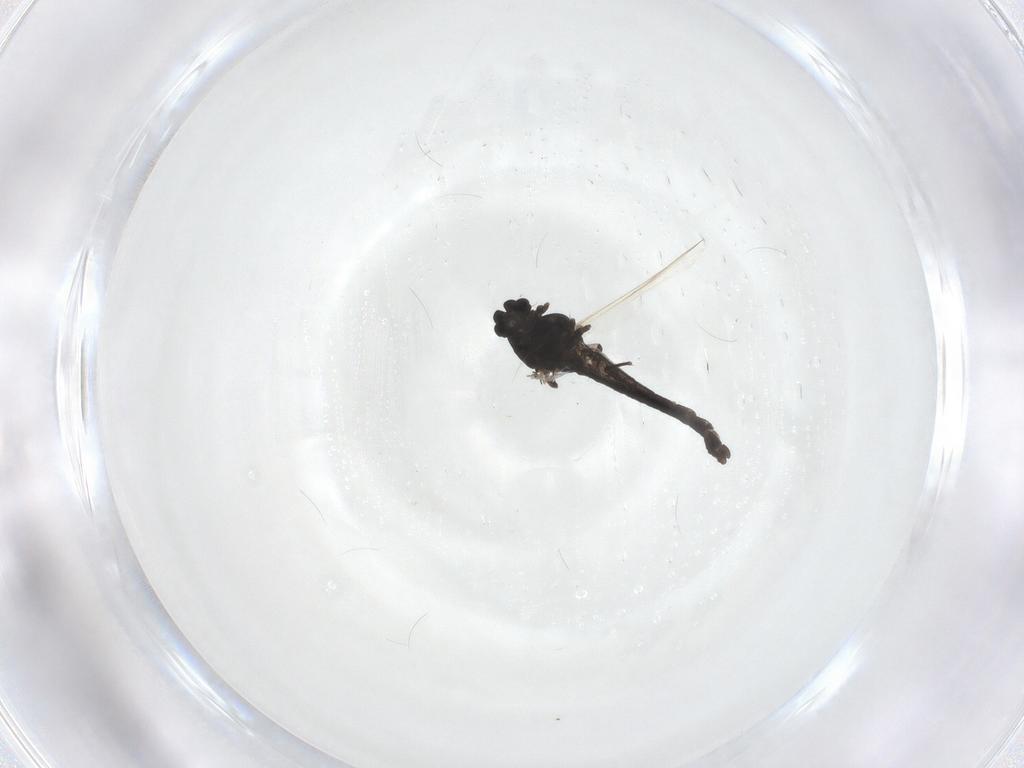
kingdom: Animalia
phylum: Arthropoda
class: Insecta
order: Diptera
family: Chironomidae
